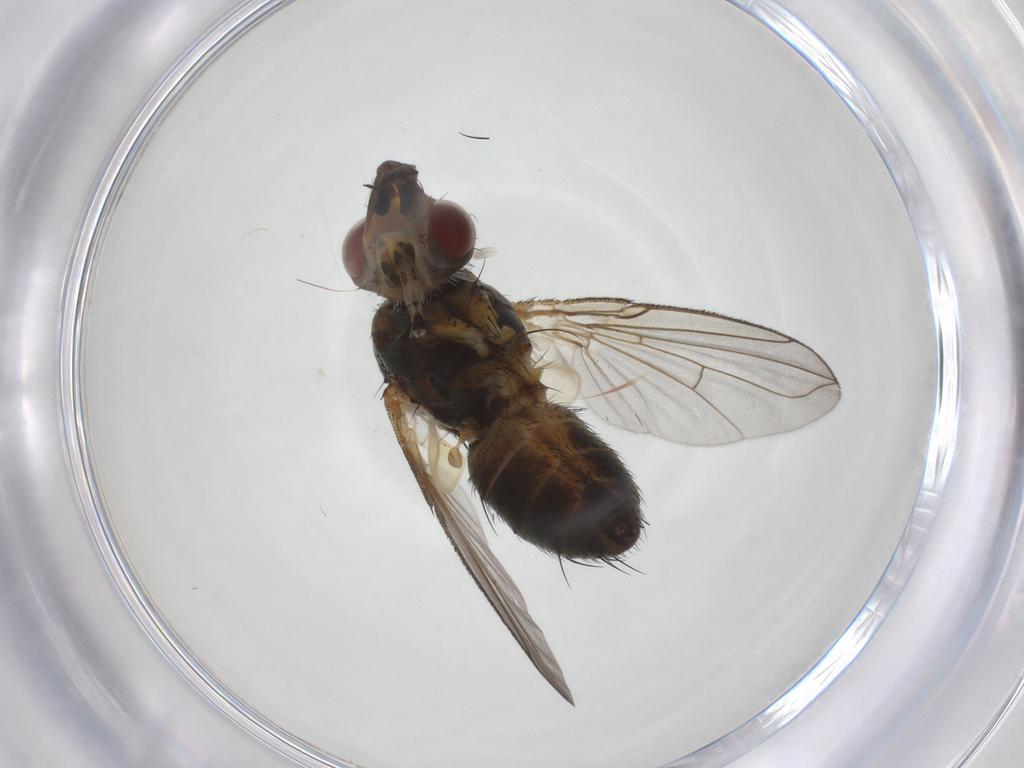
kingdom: Animalia
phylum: Arthropoda
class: Insecta
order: Diptera
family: Tachinidae
